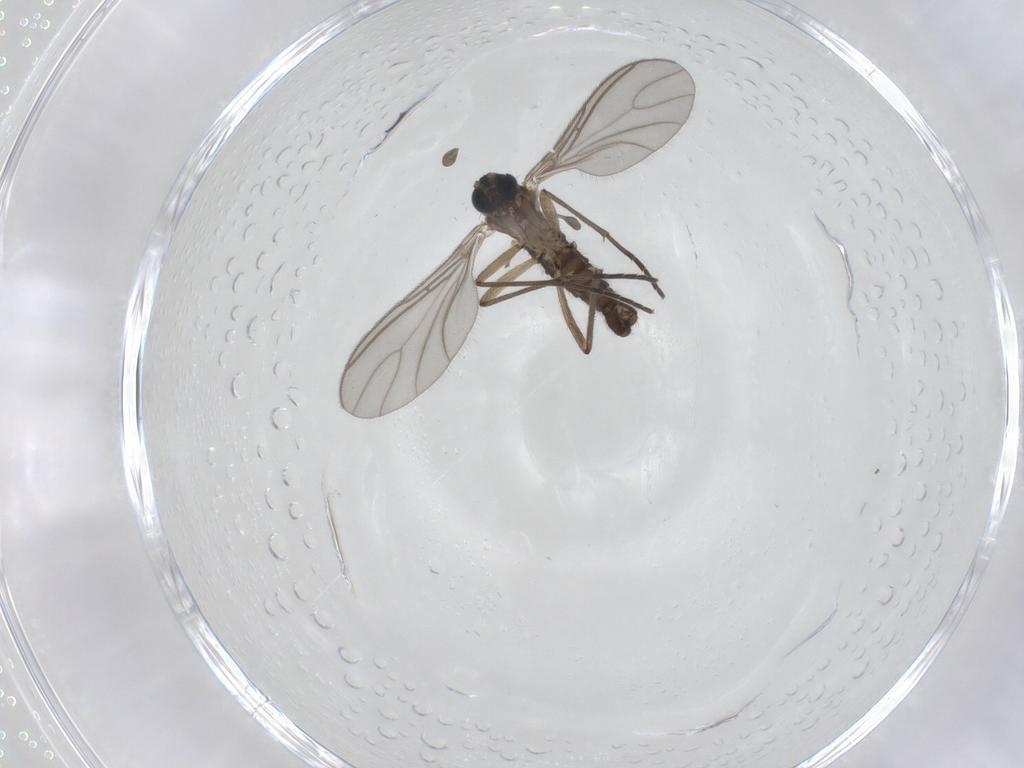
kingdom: Animalia
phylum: Arthropoda
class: Insecta
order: Diptera
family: Sciaridae
